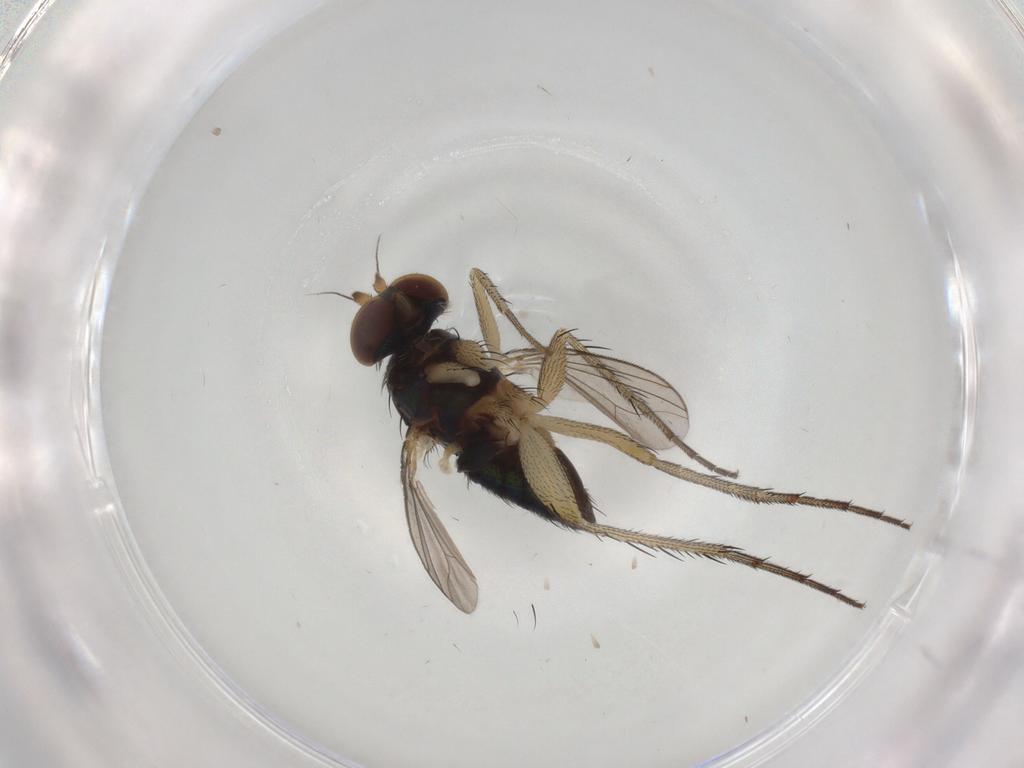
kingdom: Animalia
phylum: Arthropoda
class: Insecta
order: Diptera
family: Dolichopodidae
